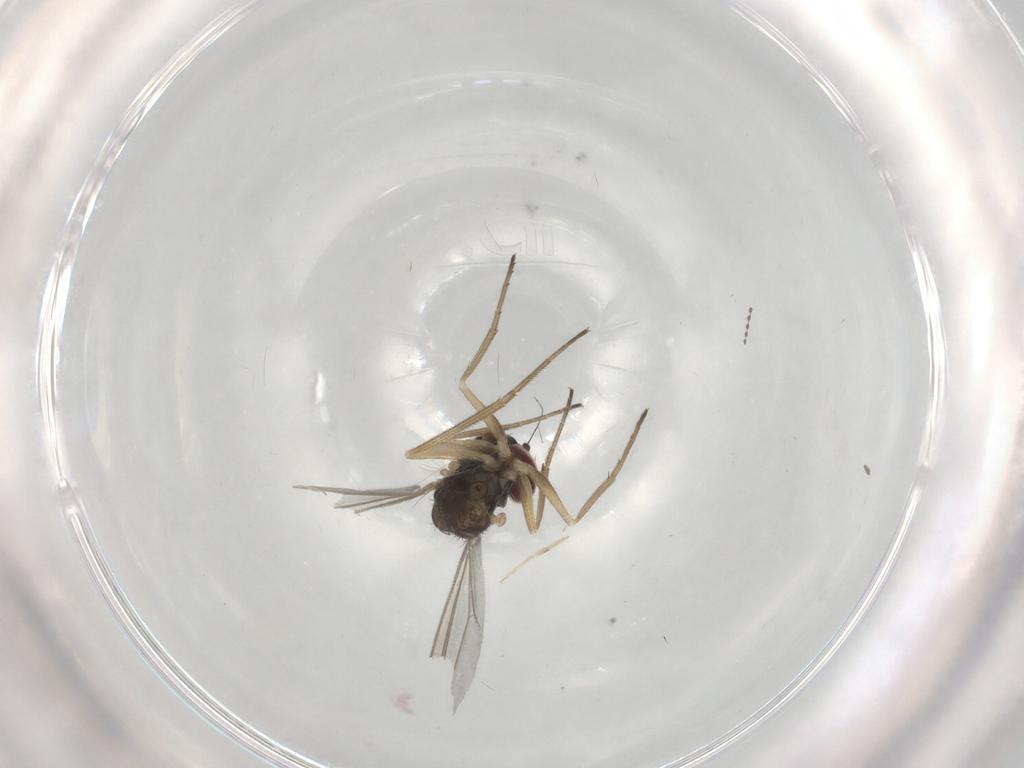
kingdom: Animalia
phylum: Arthropoda
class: Insecta
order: Diptera
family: Dolichopodidae
